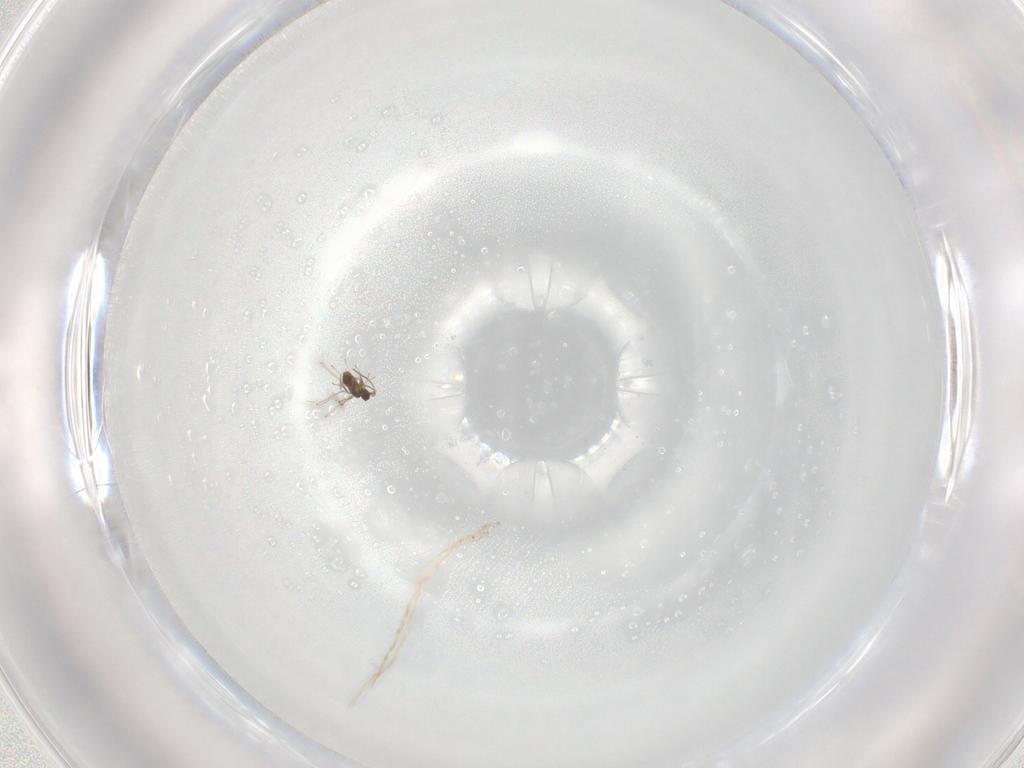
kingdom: Animalia
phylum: Arthropoda
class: Insecta
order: Hymenoptera
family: Mymaridae
